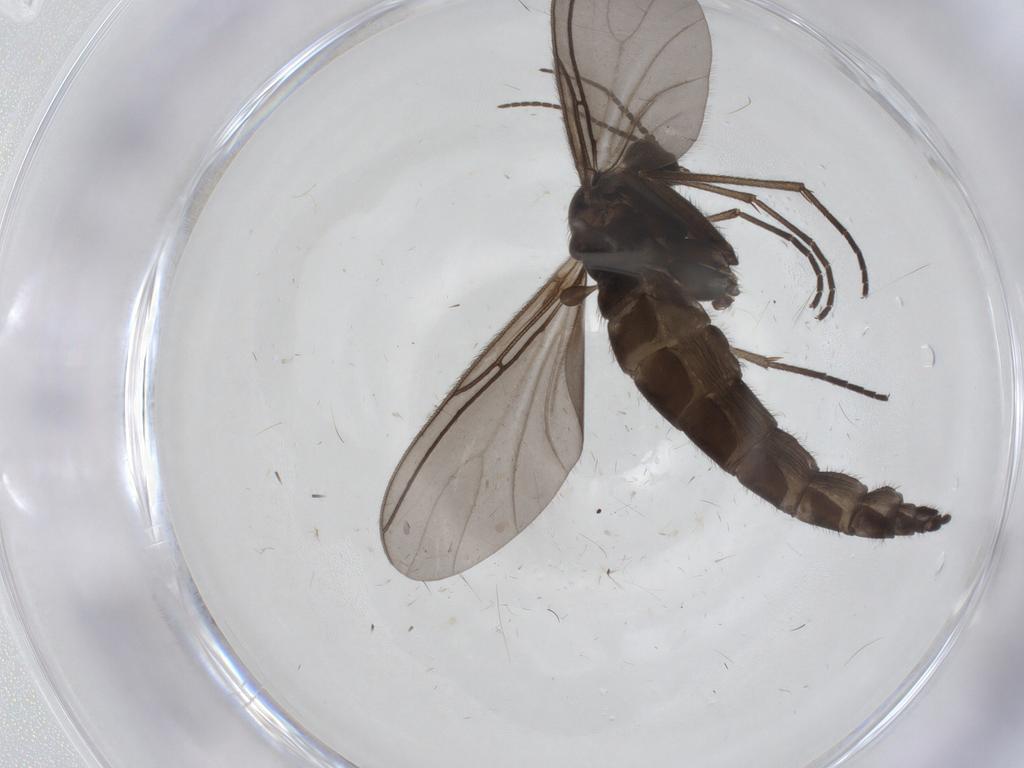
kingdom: Animalia
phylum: Arthropoda
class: Insecta
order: Diptera
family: Sciaridae
